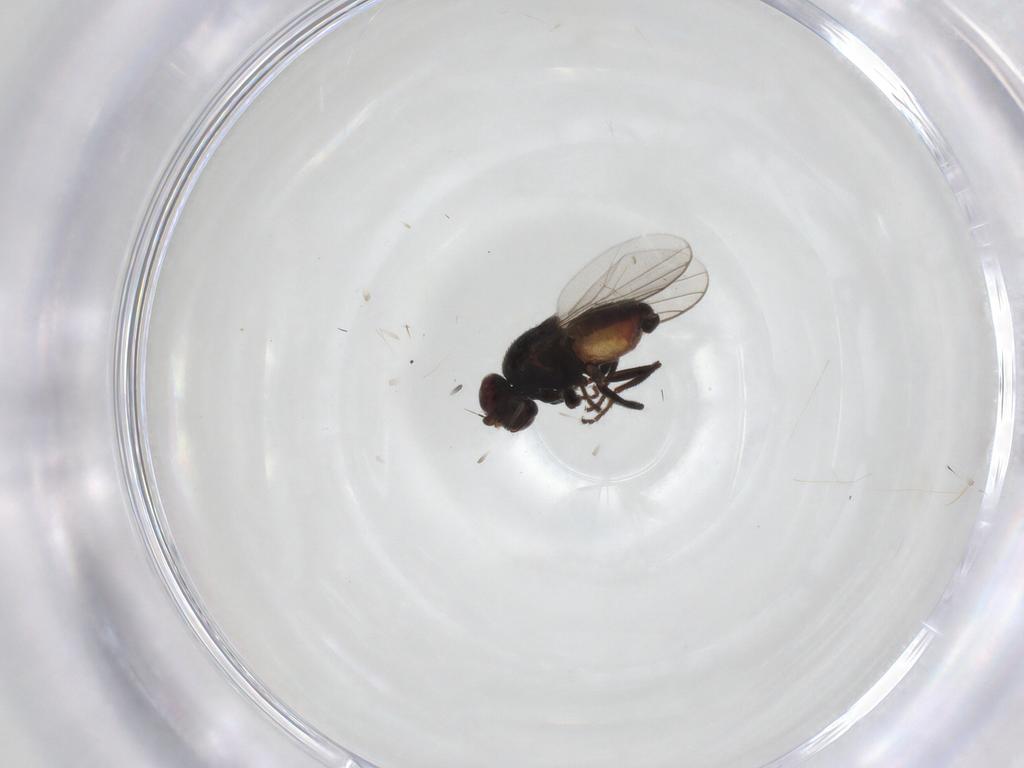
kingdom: Animalia
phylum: Arthropoda
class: Insecta
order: Diptera
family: Chloropidae
